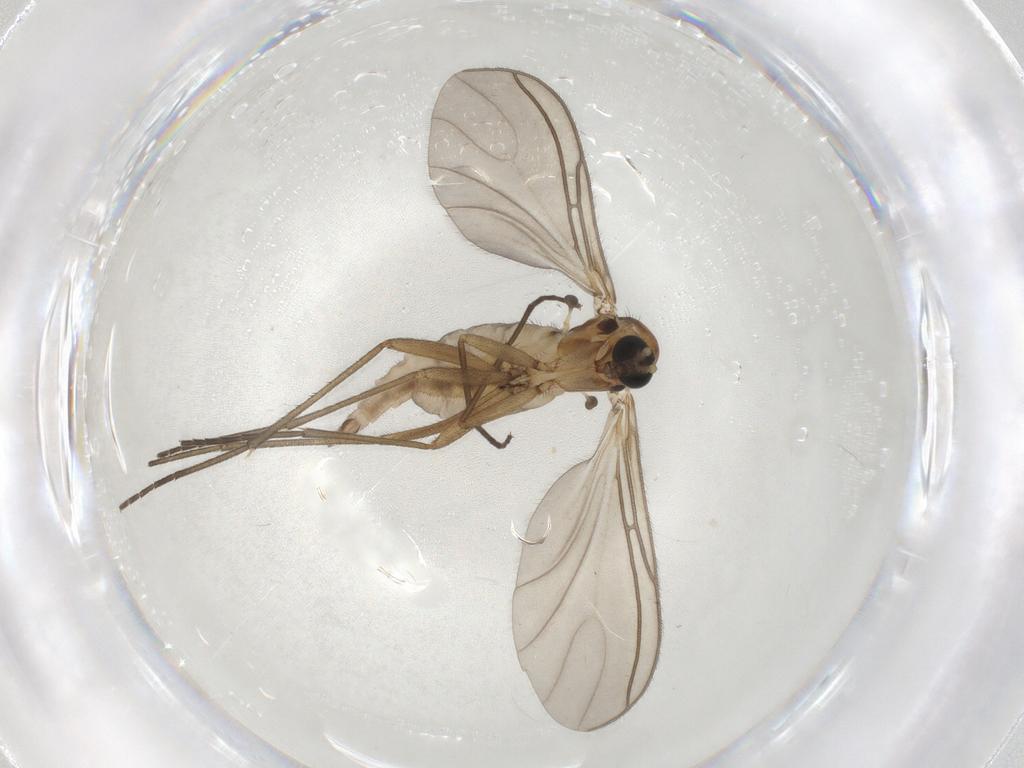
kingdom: Animalia
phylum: Arthropoda
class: Insecta
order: Diptera
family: Sciaridae
